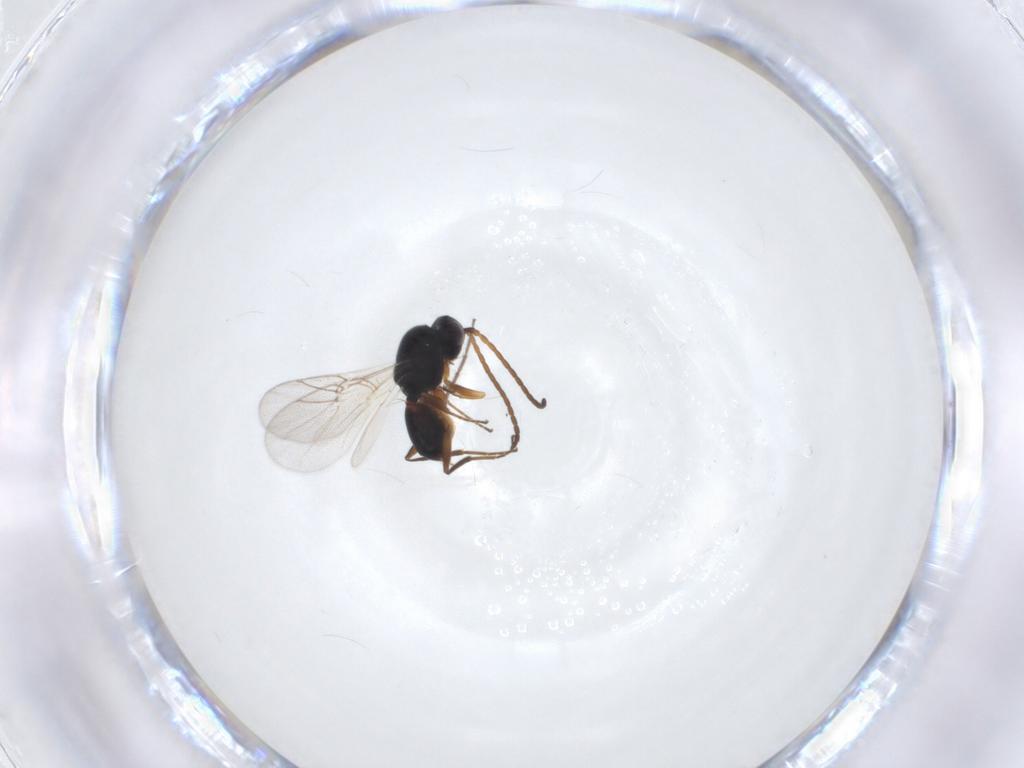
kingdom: Animalia
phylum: Arthropoda
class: Insecta
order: Hymenoptera
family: Cynipidae
